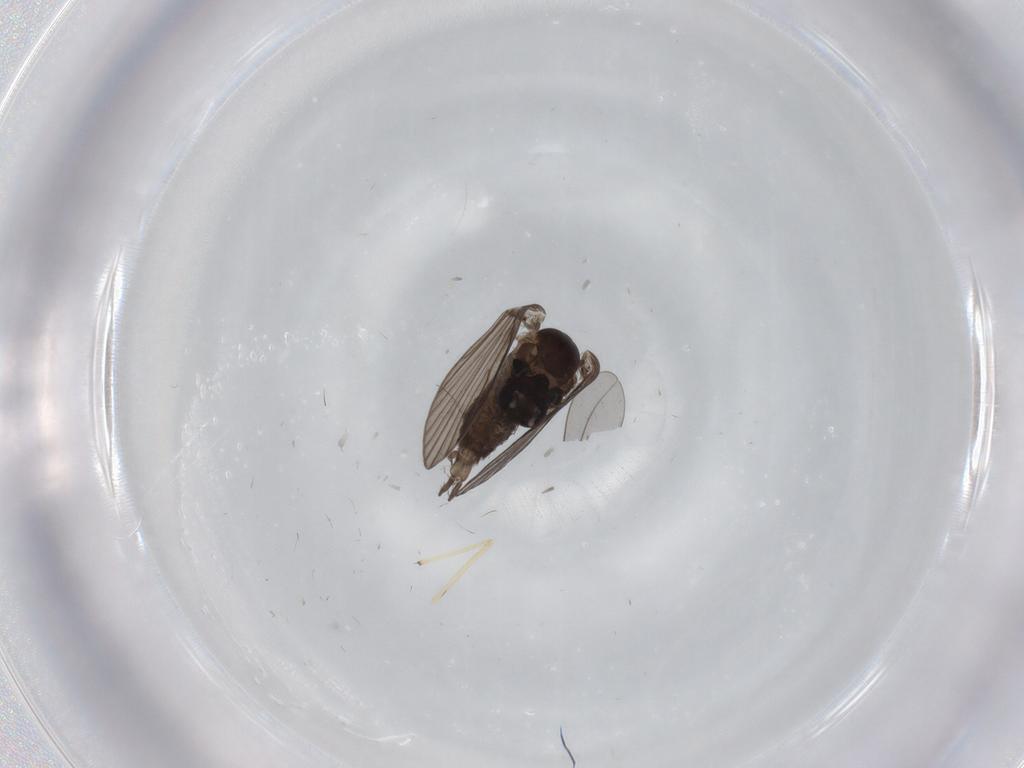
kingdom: Animalia
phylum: Arthropoda
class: Insecta
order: Diptera
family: Psychodidae
